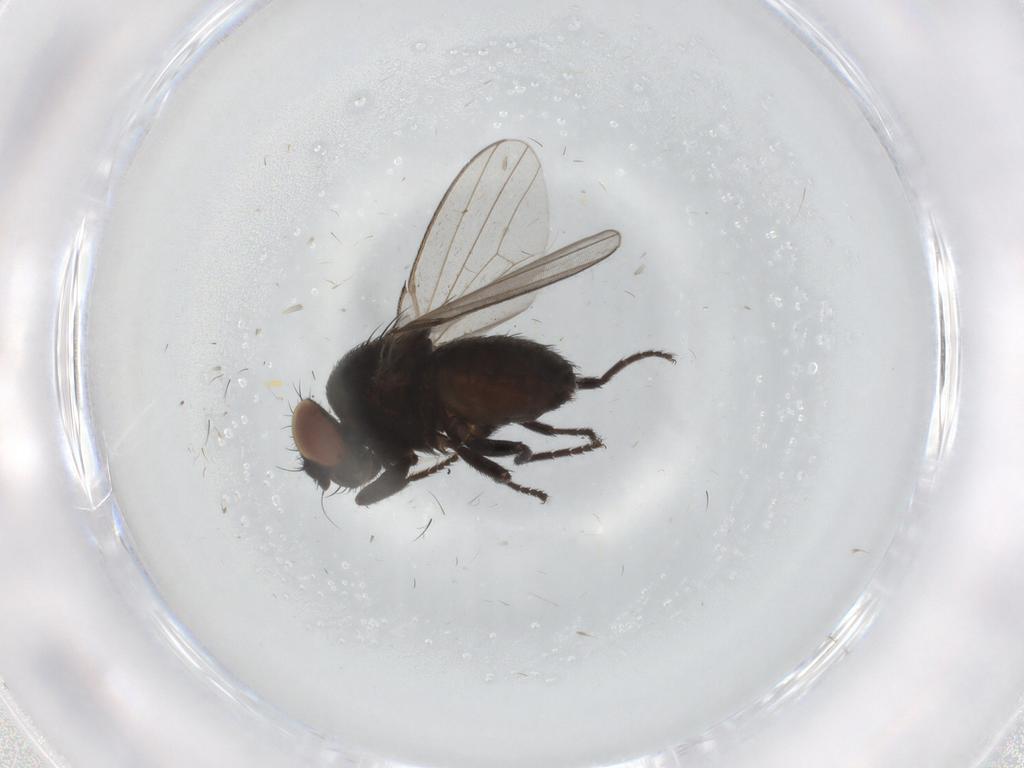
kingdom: Animalia
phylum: Arthropoda
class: Insecta
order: Diptera
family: Milichiidae
